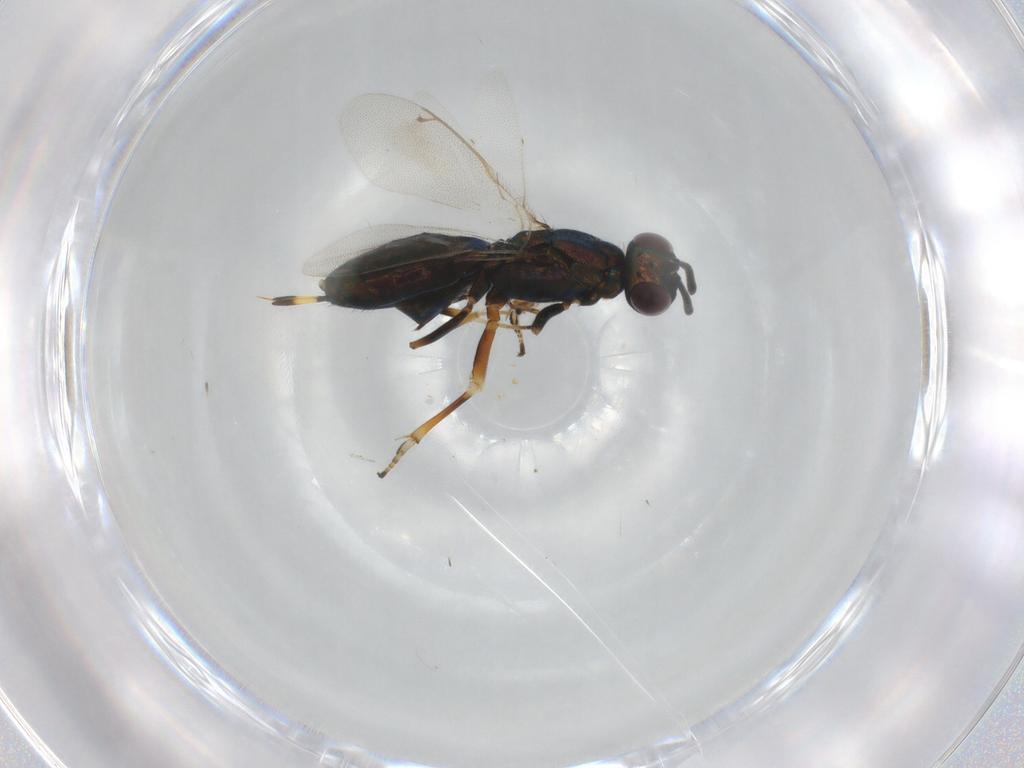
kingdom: Animalia
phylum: Arthropoda
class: Insecta
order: Hymenoptera
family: Eupelmidae
